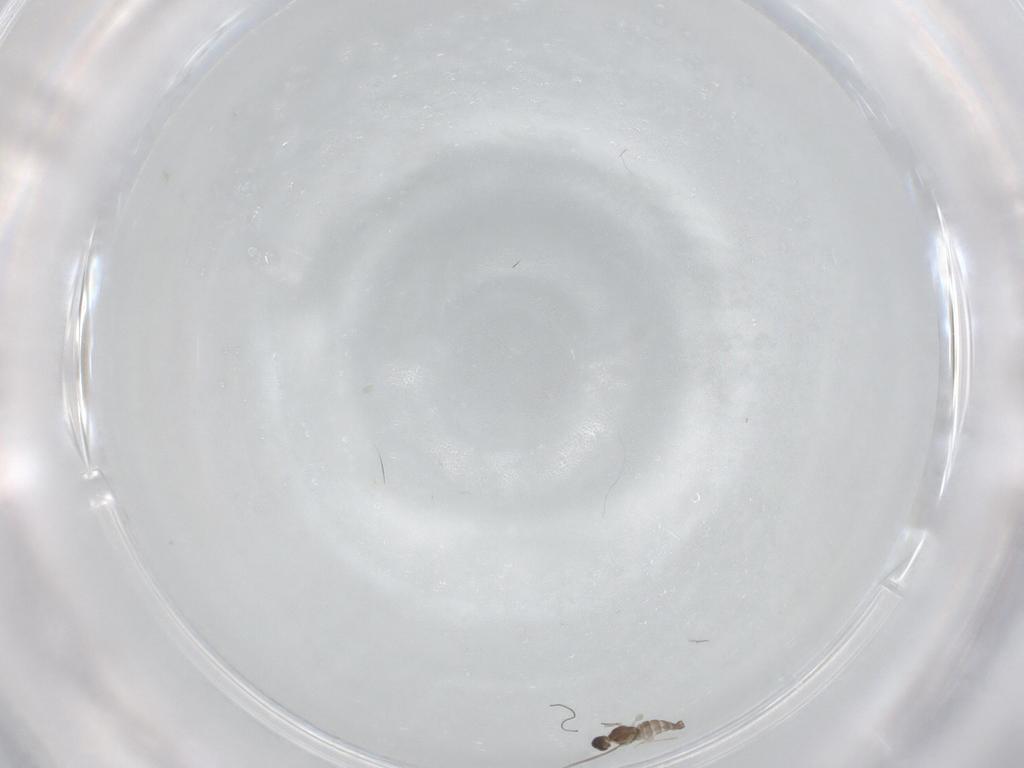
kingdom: Animalia
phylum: Arthropoda
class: Insecta
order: Diptera
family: Cecidomyiidae
